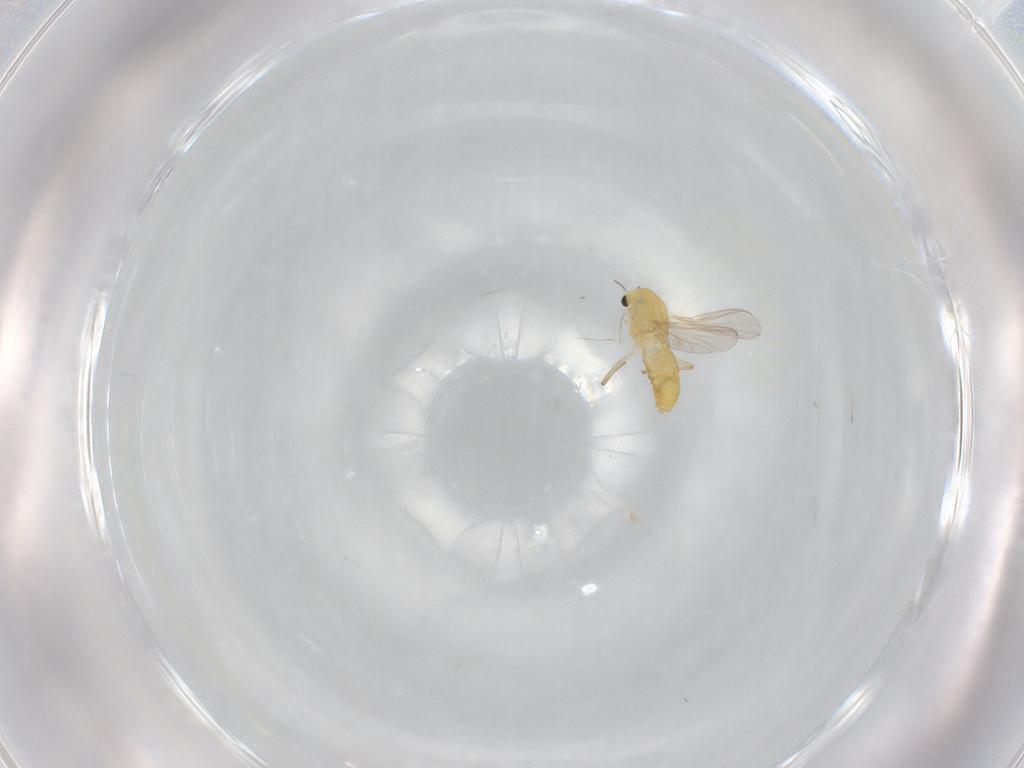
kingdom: Animalia
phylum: Arthropoda
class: Insecta
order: Diptera
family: Chironomidae
